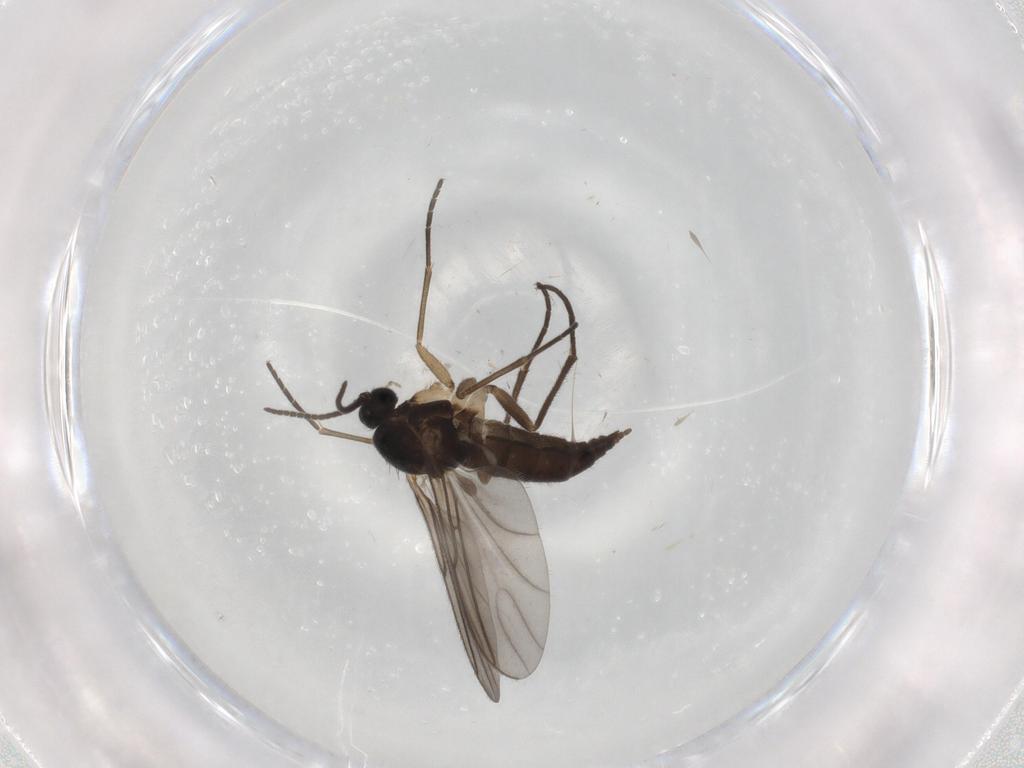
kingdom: Animalia
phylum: Arthropoda
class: Insecta
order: Diptera
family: Sciaridae
